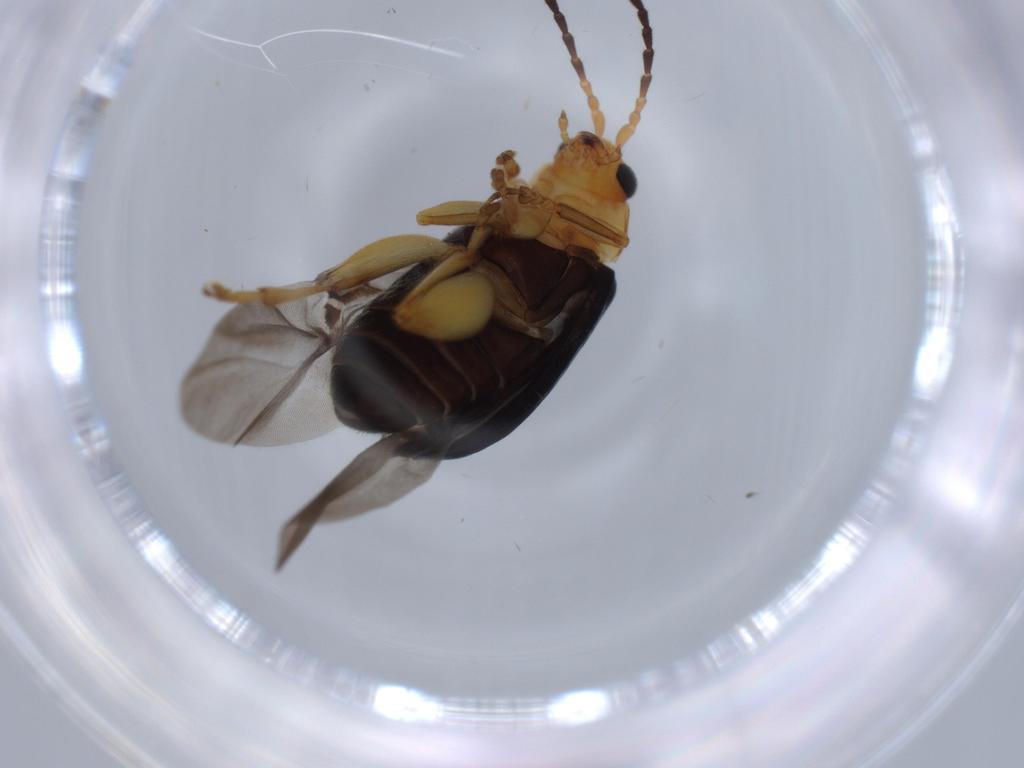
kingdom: Animalia
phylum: Arthropoda
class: Insecta
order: Coleoptera
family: Chrysomelidae
